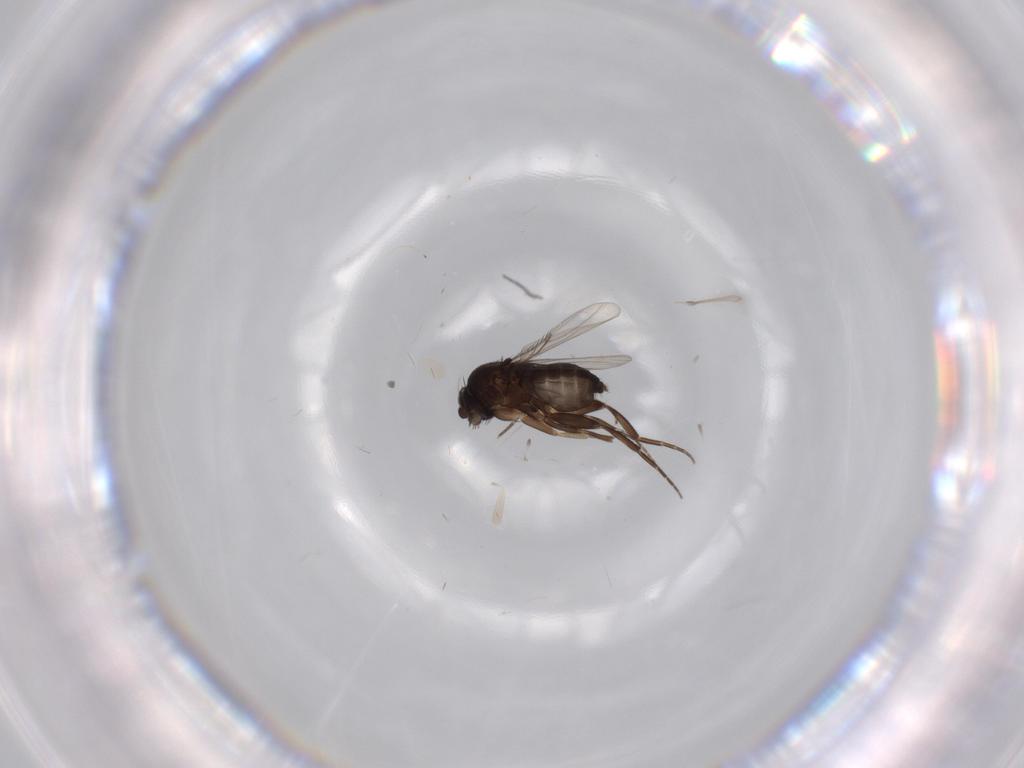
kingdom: Animalia
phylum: Arthropoda
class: Insecta
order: Diptera
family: Phoridae
